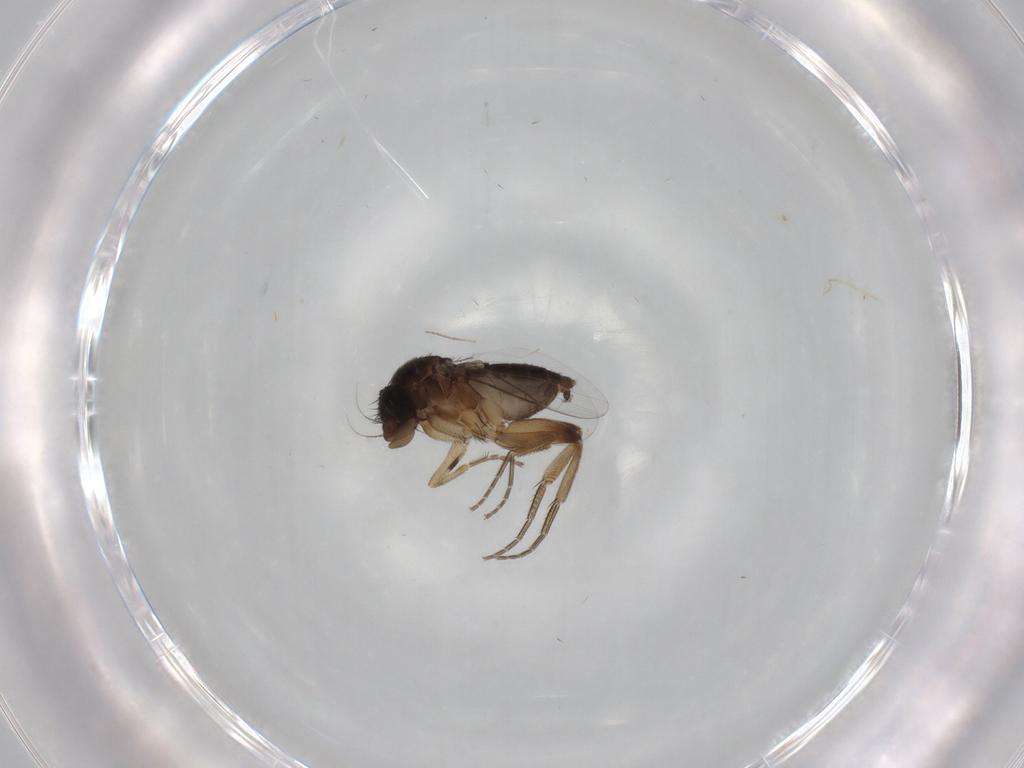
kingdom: Animalia
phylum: Arthropoda
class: Insecta
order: Diptera
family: Phoridae
